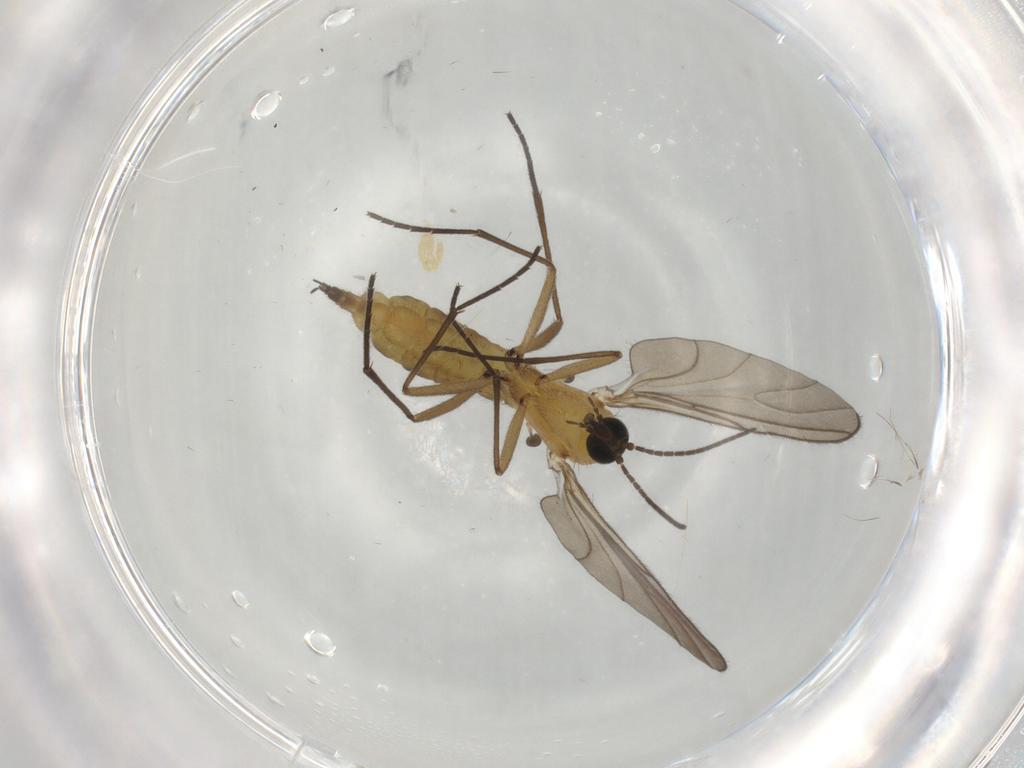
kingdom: Animalia
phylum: Arthropoda
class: Insecta
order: Diptera
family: Sciaridae
